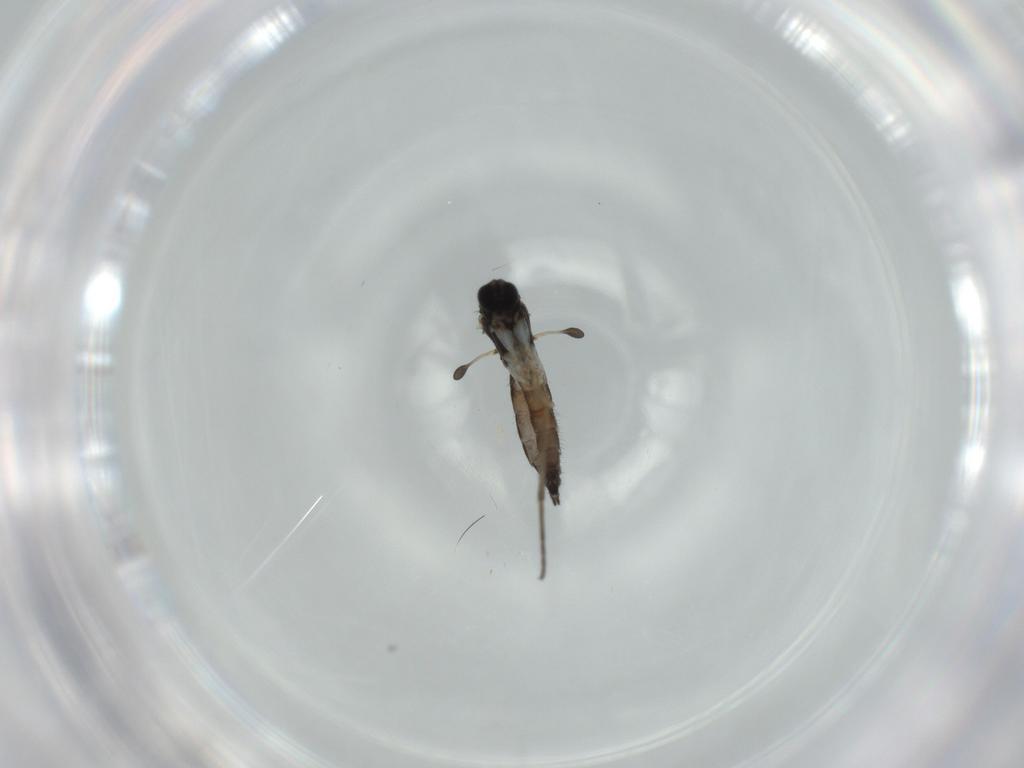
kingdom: Animalia
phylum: Arthropoda
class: Insecta
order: Diptera
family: Sciaridae
